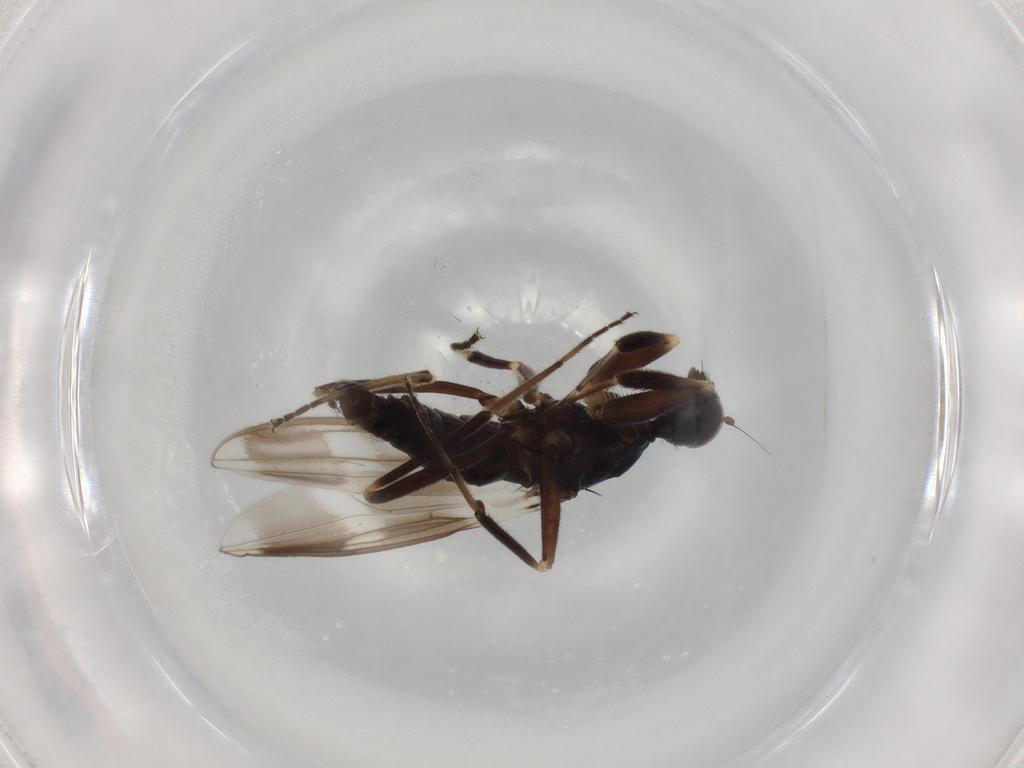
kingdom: Animalia
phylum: Arthropoda
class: Insecta
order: Diptera
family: Hybotidae
